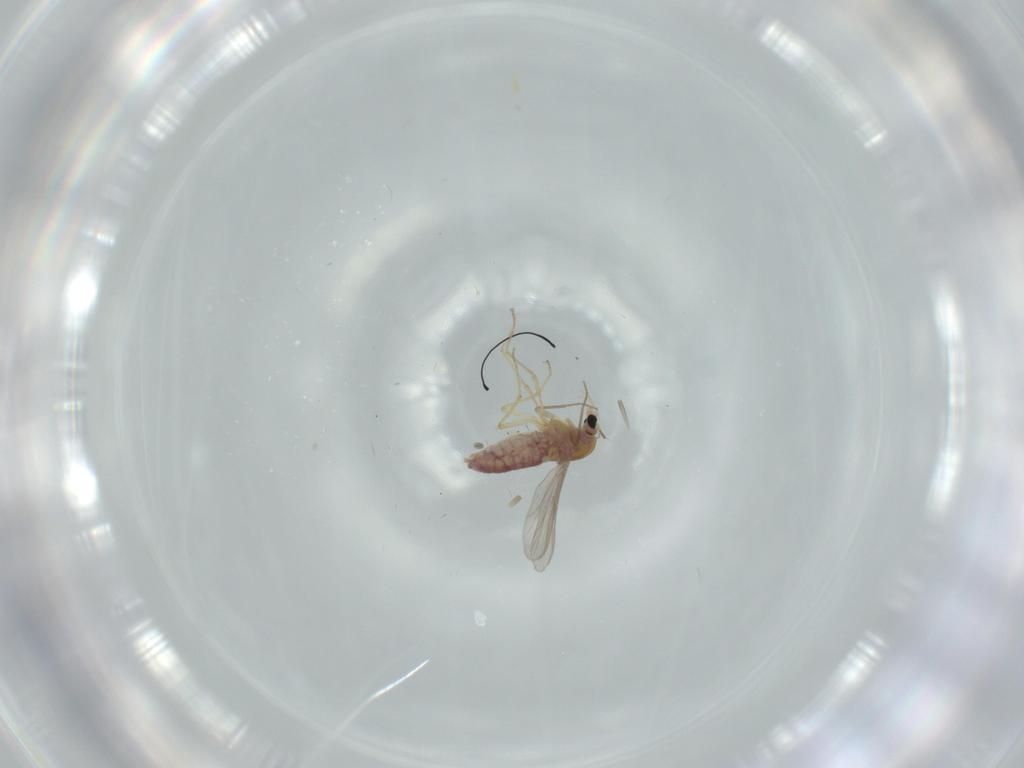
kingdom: Animalia
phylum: Arthropoda
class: Insecta
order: Diptera
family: Chironomidae
